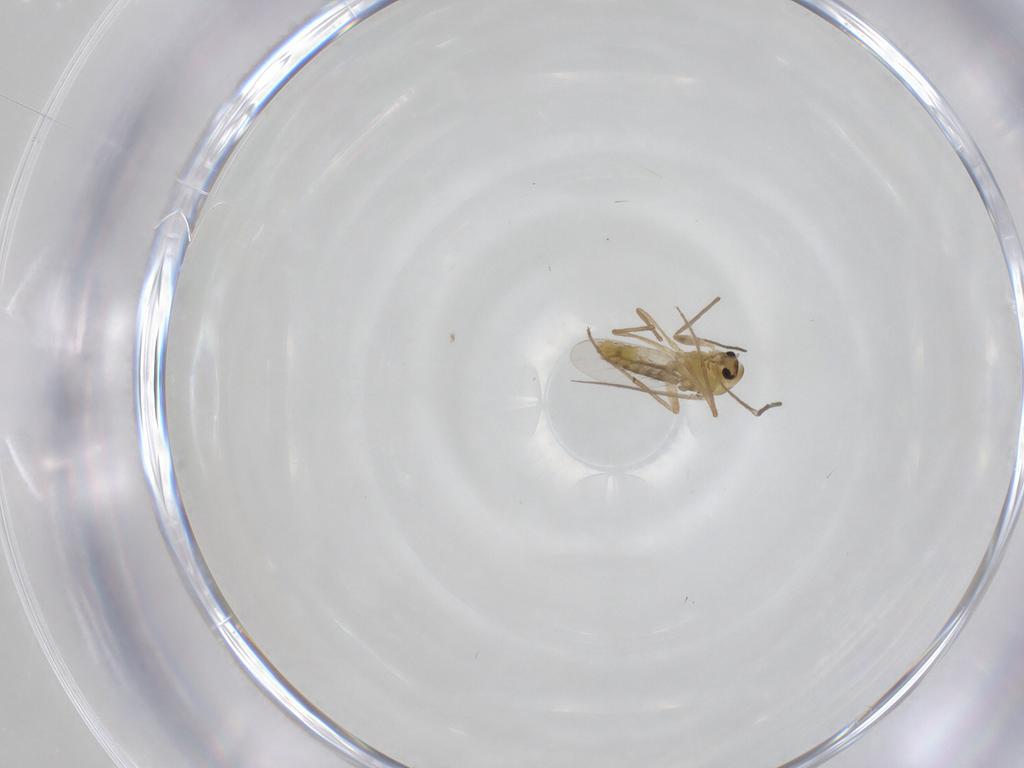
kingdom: Animalia
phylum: Arthropoda
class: Insecta
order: Diptera
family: Chironomidae
